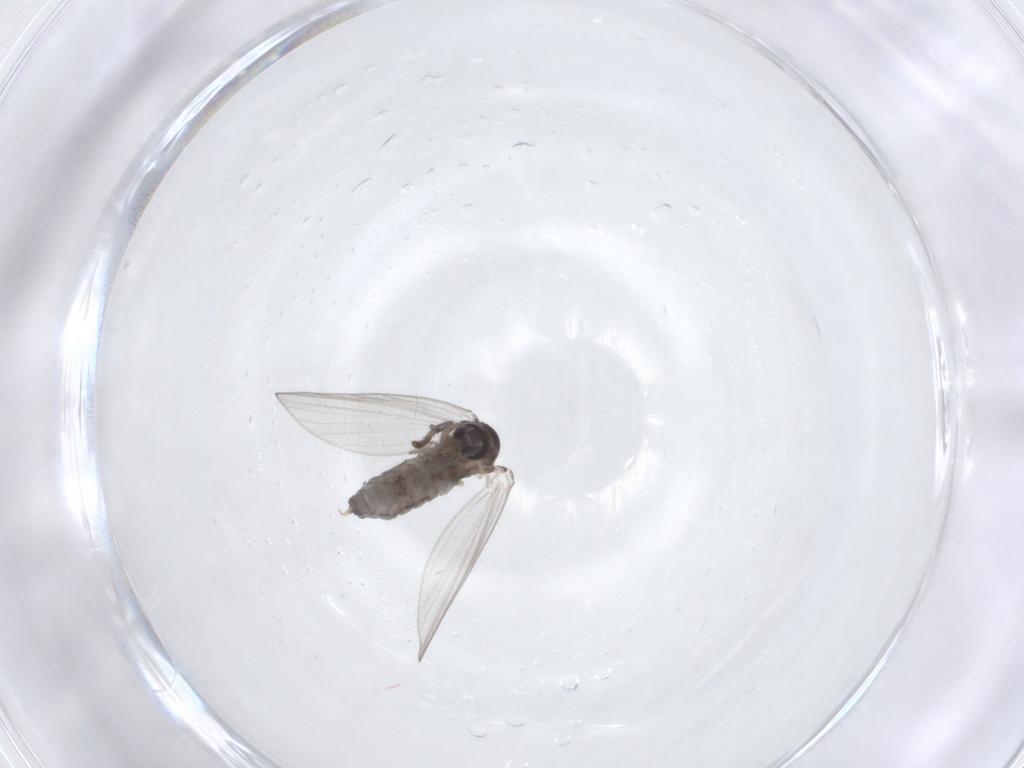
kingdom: Animalia
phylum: Arthropoda
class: Insecta
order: Diptera
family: Psychodidae
